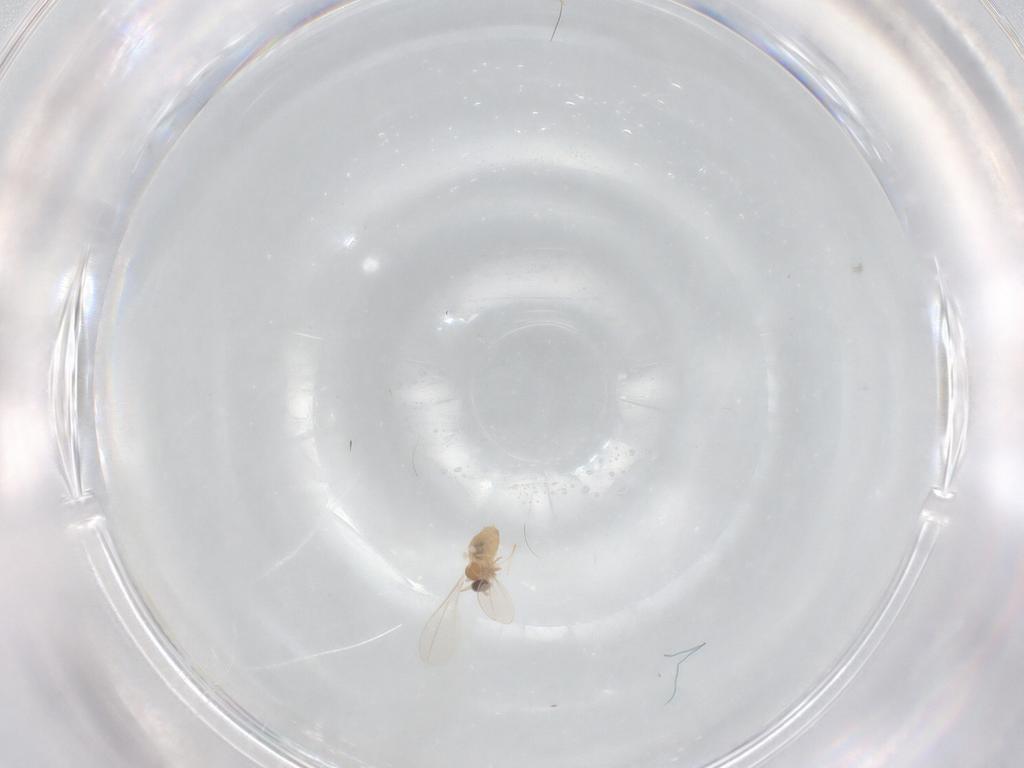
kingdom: Animalia
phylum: Arthropoda
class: Insecta
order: Diptera
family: Cecidomyiidae
